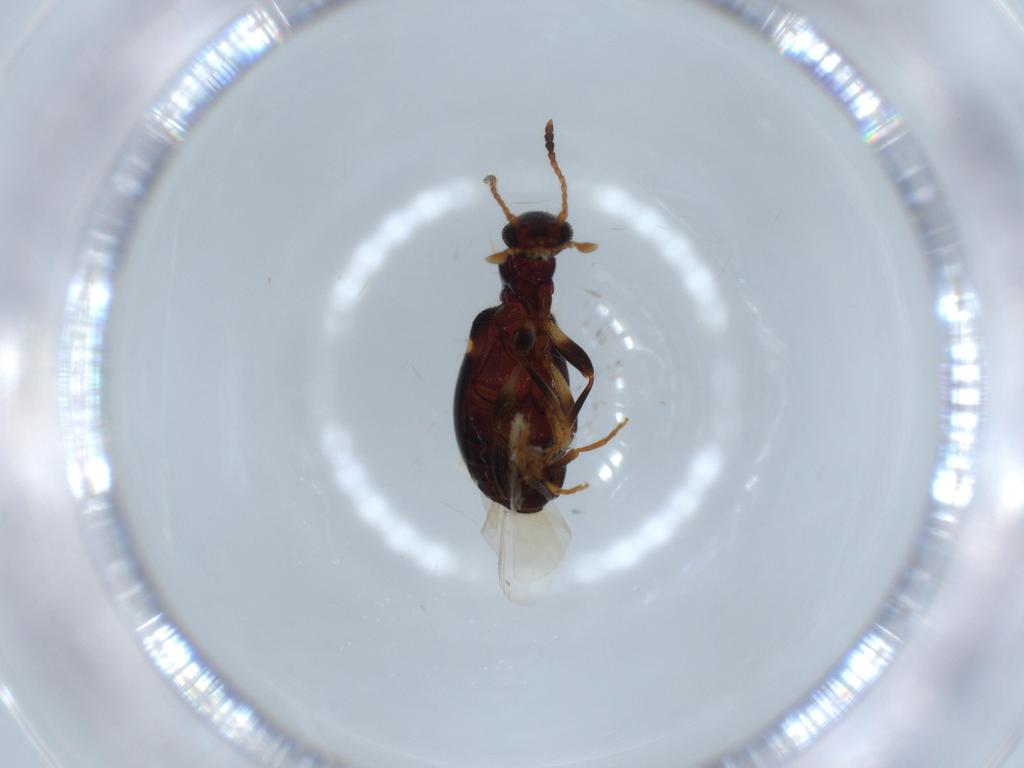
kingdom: Animalia
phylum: Arthropoda
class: Insecta
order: Coleoptera
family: Anthicidae
